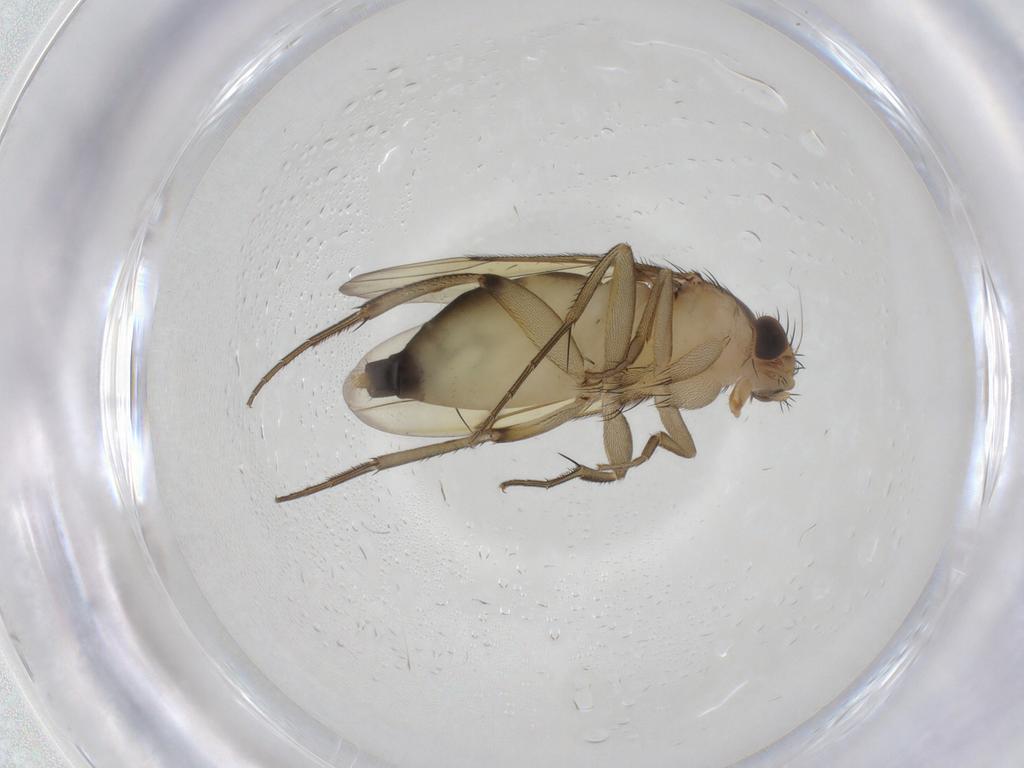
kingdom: Animalia
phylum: Arthropoda
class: Insecta
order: Diptera
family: Phoridae
